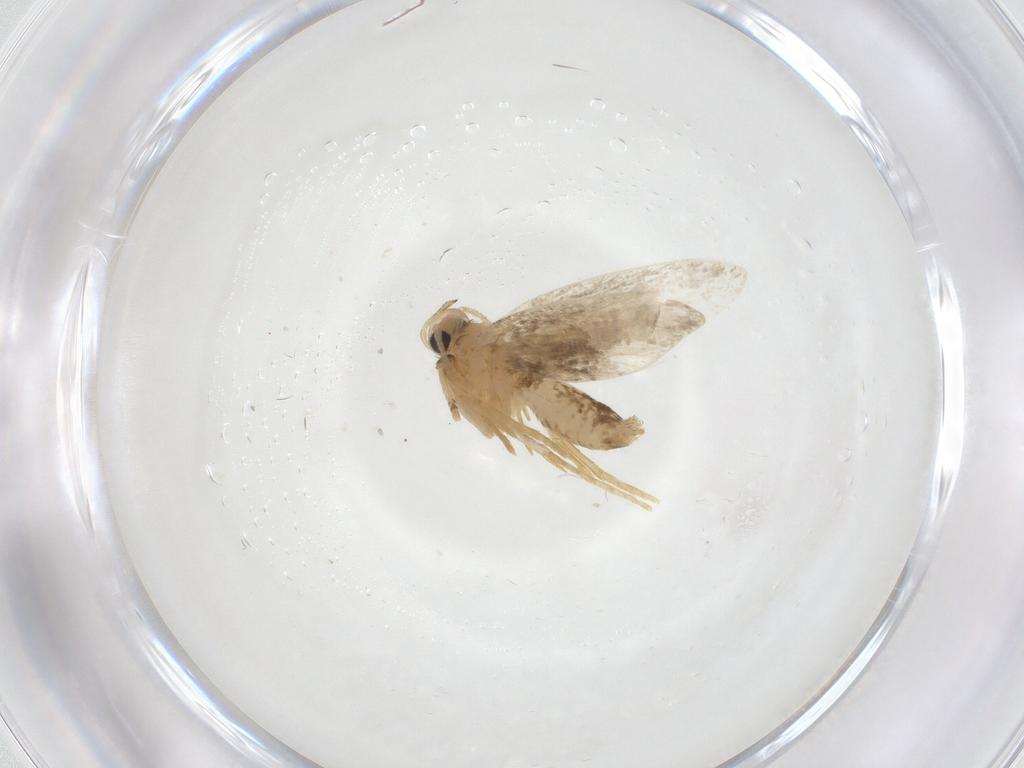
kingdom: Animalia
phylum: Arthropoda
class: Insecta
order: Lepidoptera
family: Psychidae
